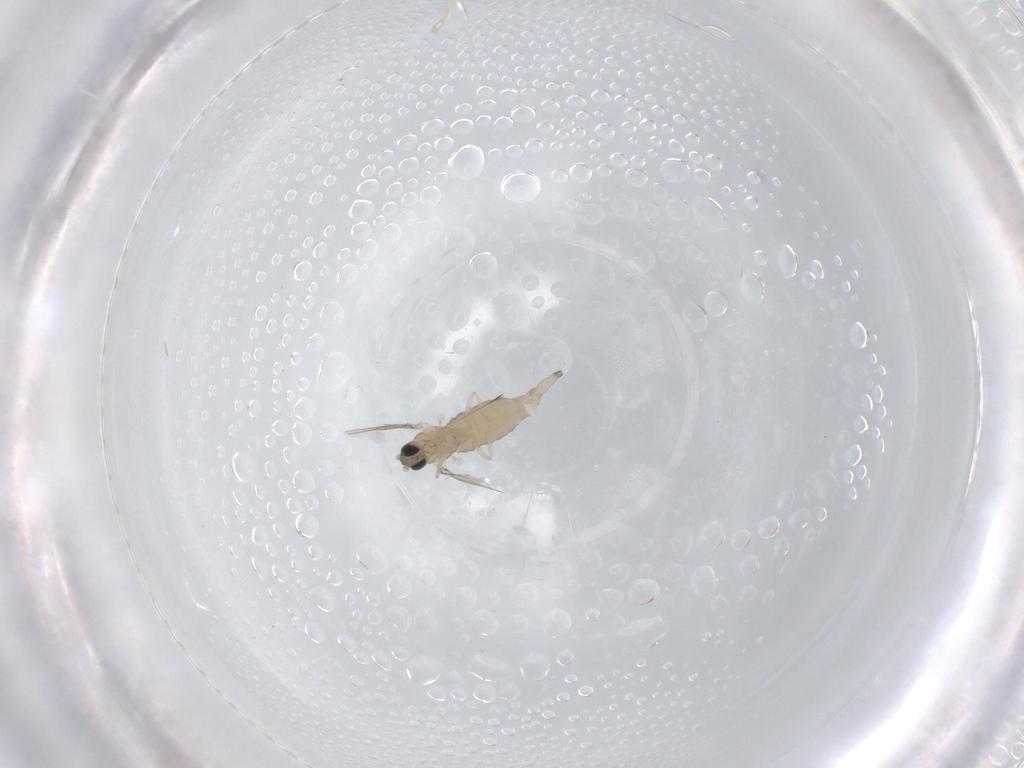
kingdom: Animalia
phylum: Arthropoda
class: Insecta
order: Diptera
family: Cecidomyiidae
